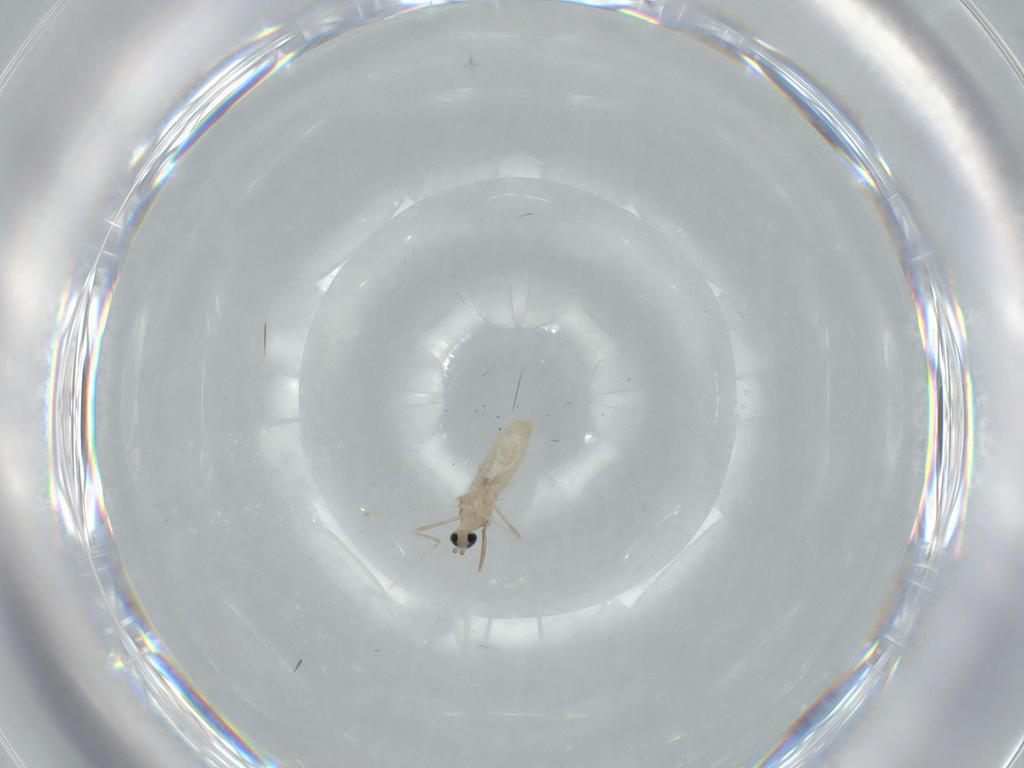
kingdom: Animalia
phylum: Arthropoda
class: Insecta
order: Diptera
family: Cecidomyiidae
